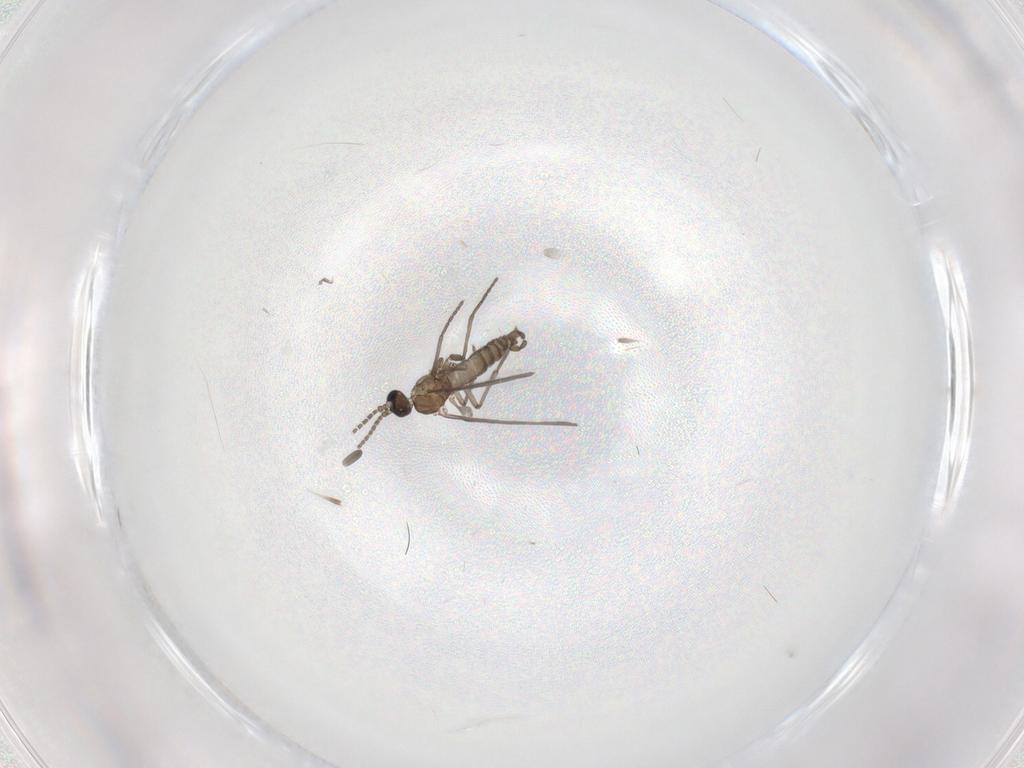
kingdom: Animalia
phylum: Arthropoda
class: Insecta
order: Diptera
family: Sciaridae
